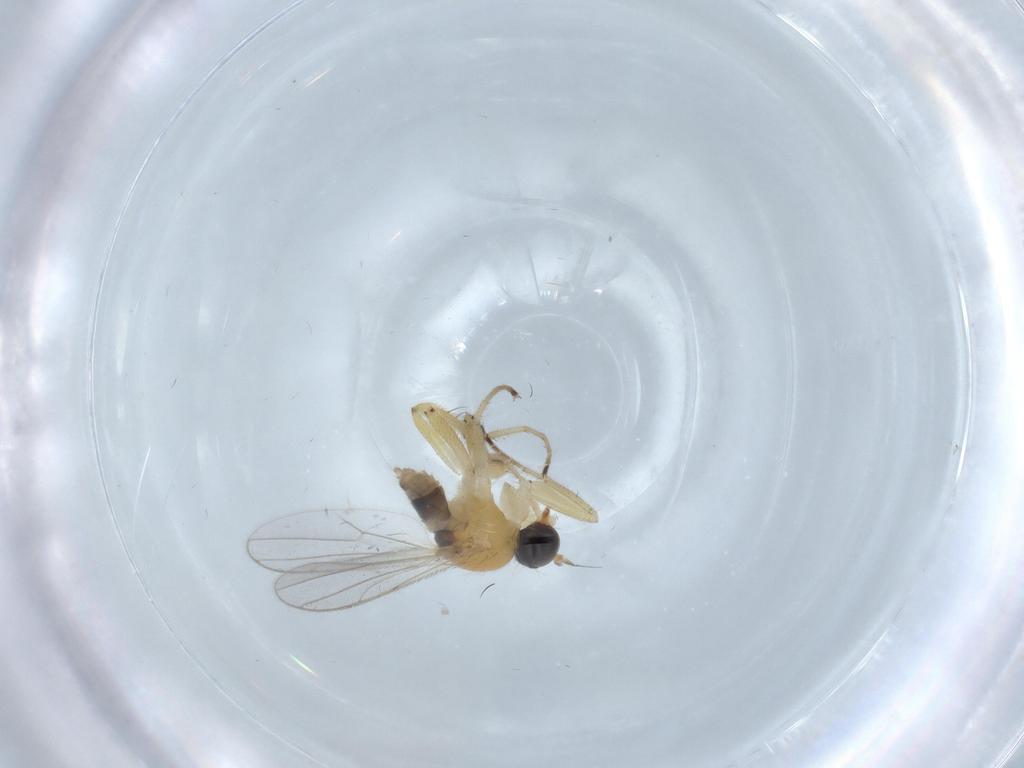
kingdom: Animalia
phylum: Arthropoda
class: Insecta
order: Diptera
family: Hybotidae
